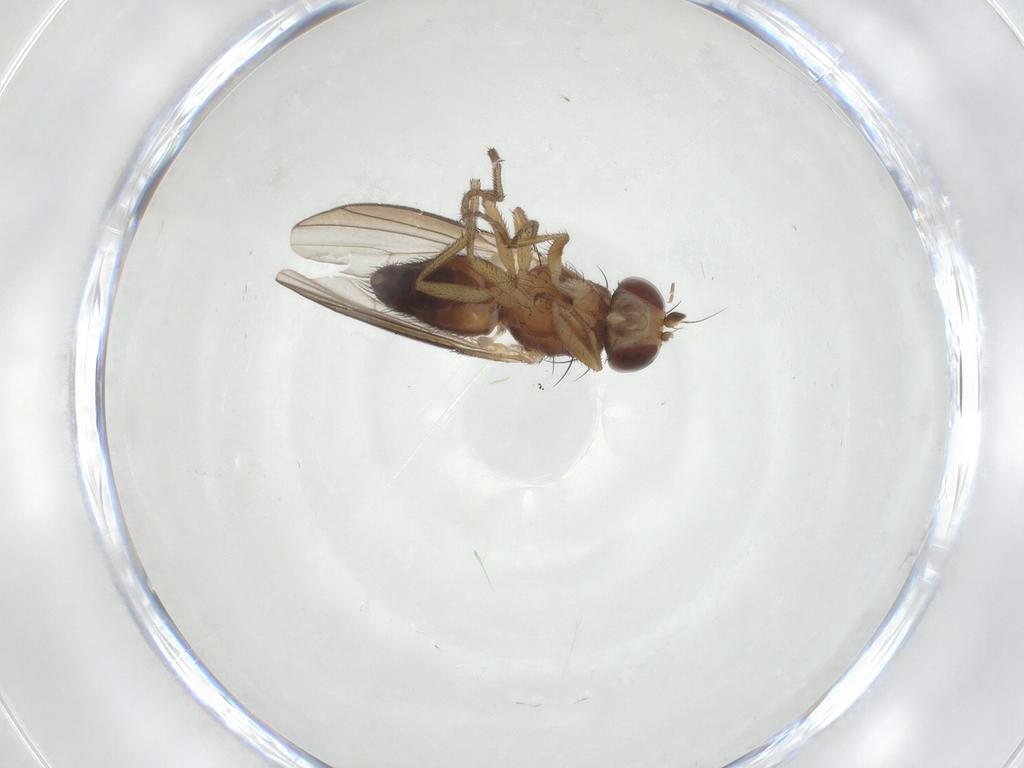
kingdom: Animalia
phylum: Arthropoda
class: Insecta
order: Diptera
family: Heleomyzidae
